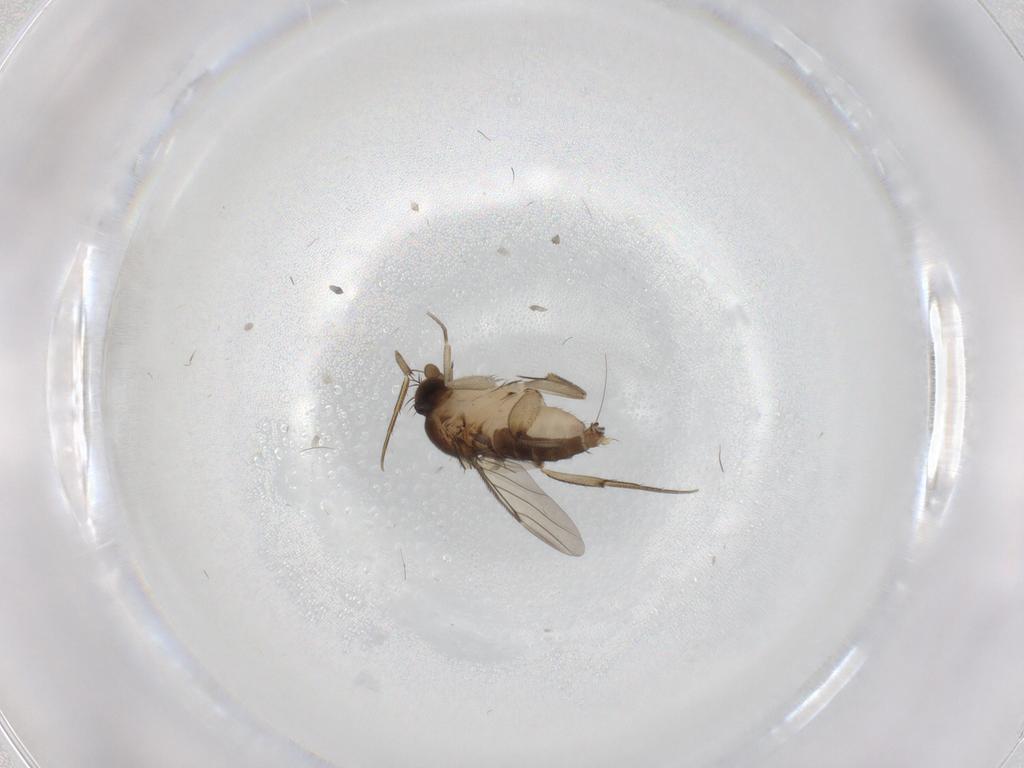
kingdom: Animalia
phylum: Arthropoda
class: Insecta
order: Diptera
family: Phoridae
